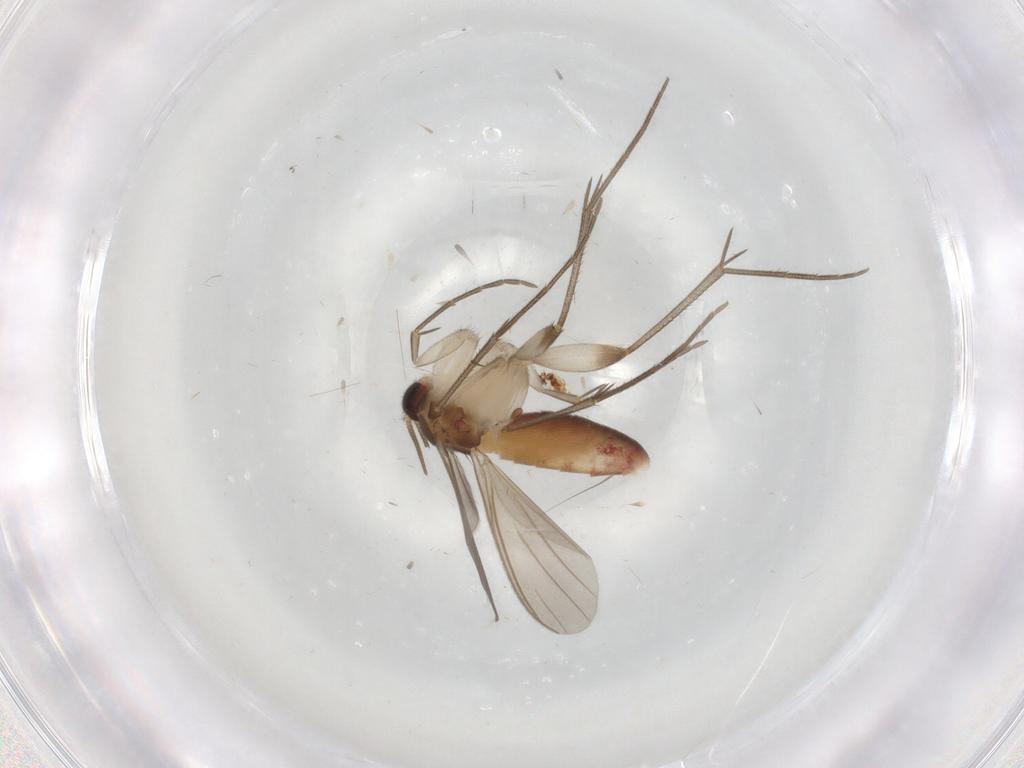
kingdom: Animalia
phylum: Arthropoda
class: Insecta
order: Diptera
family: Phoridae
